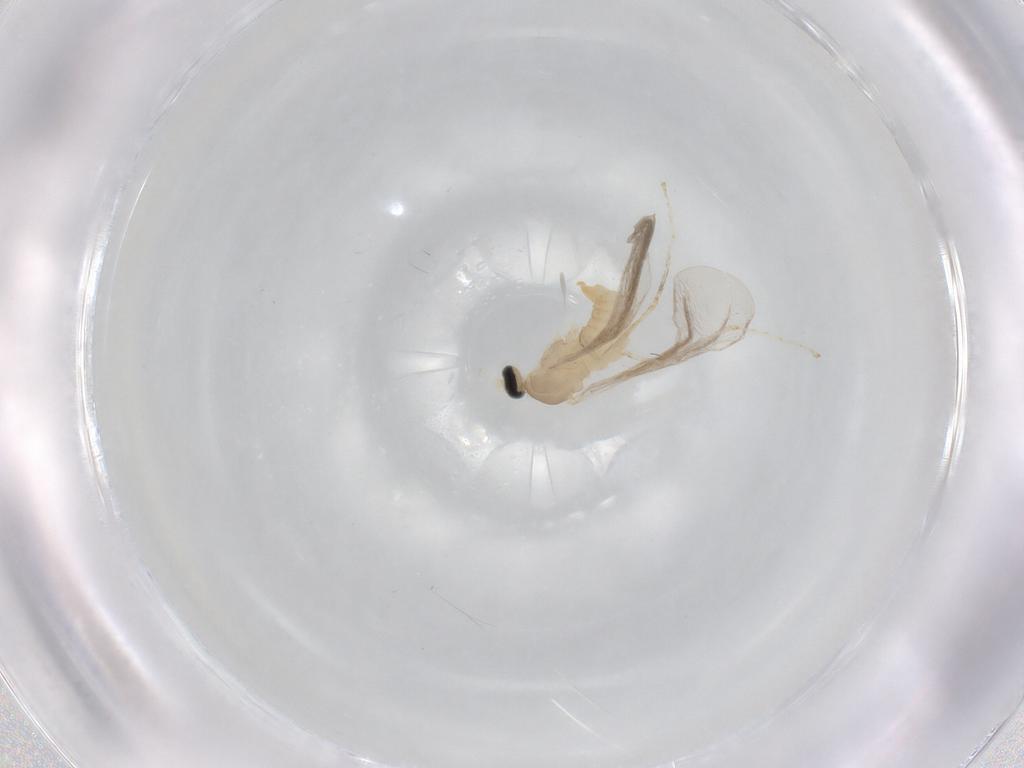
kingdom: Animalia
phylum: Arthropoda
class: Insecta
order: Diptera
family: Cecidomyiidae
